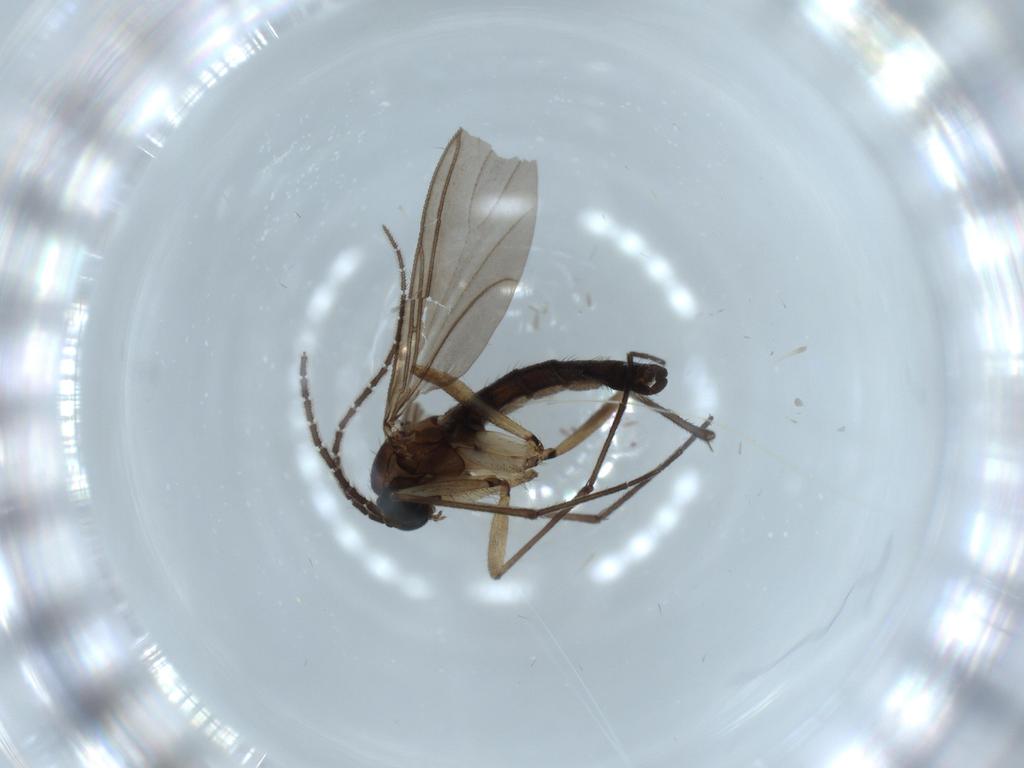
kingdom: Animalia
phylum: Arthropoda
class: Insecta
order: Diptera
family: Sciaridae
